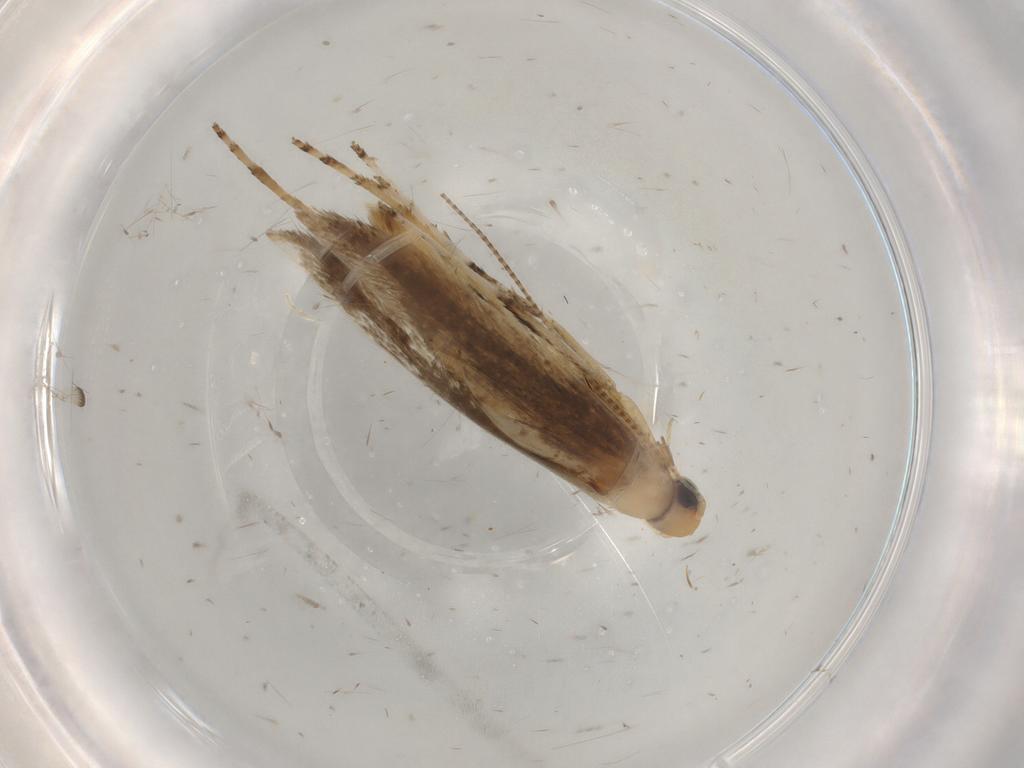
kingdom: Animalia
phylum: Arthropoda
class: Insecta
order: Lepidoptera
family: Gracillariidae
